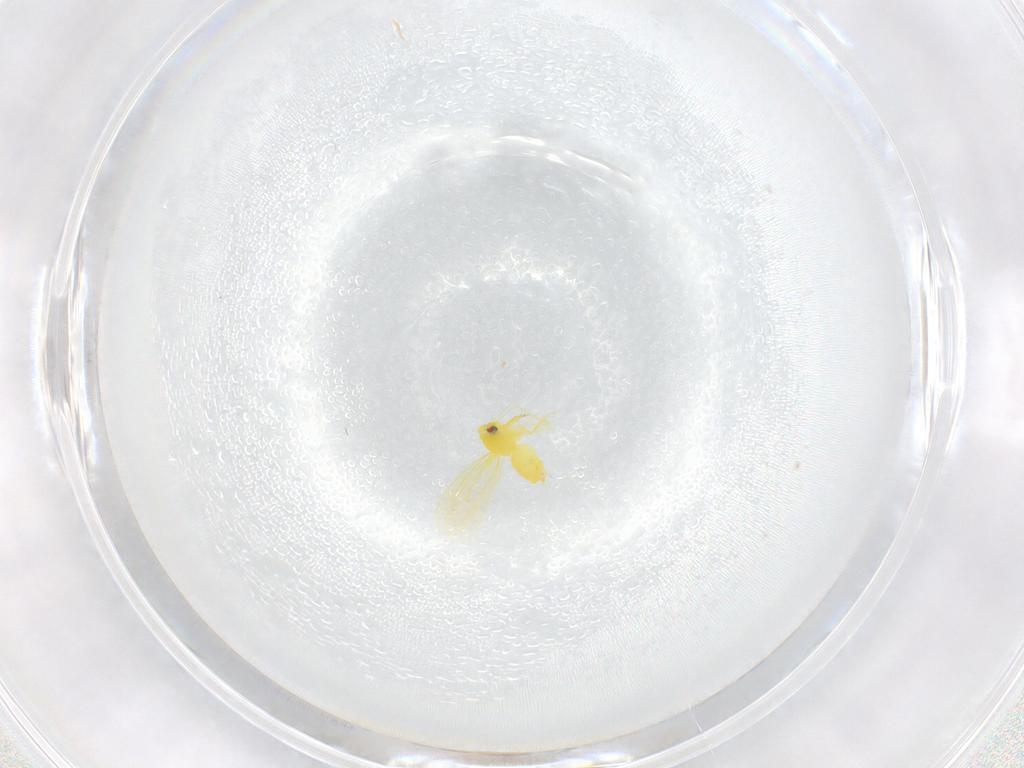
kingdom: Animalia
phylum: Arthropoda
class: Insecta
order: Hemiptera
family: Aleyrodidae
